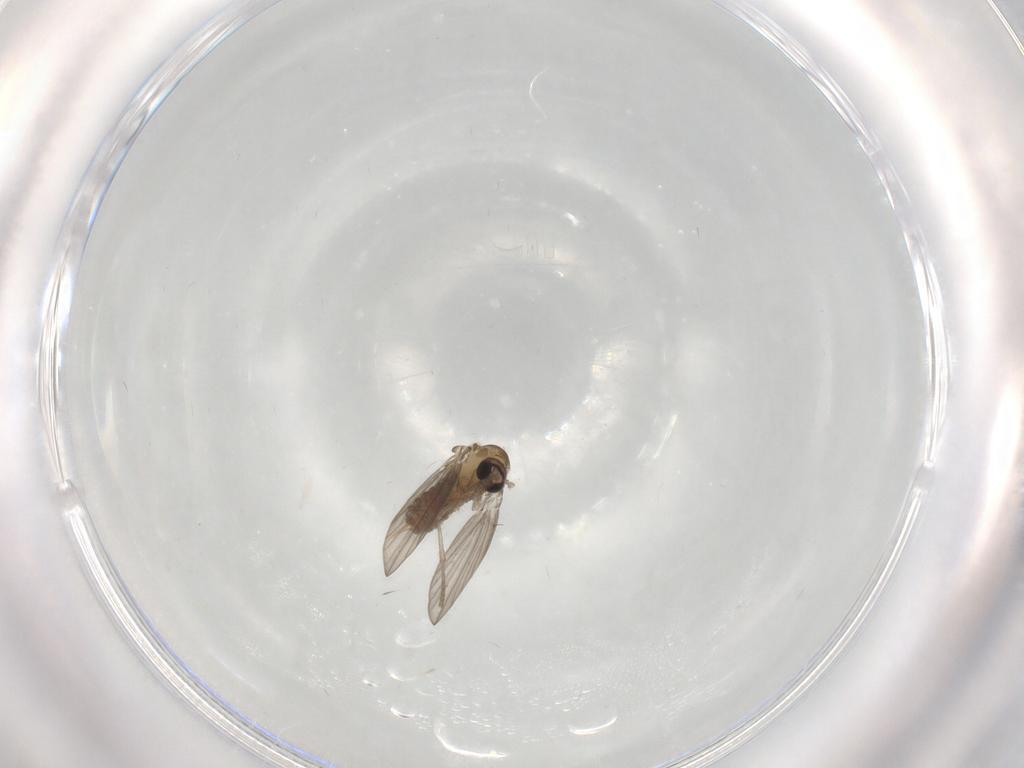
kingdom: Animalia
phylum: Arthropoda
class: Insecta
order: Diptera
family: Psychodidae
